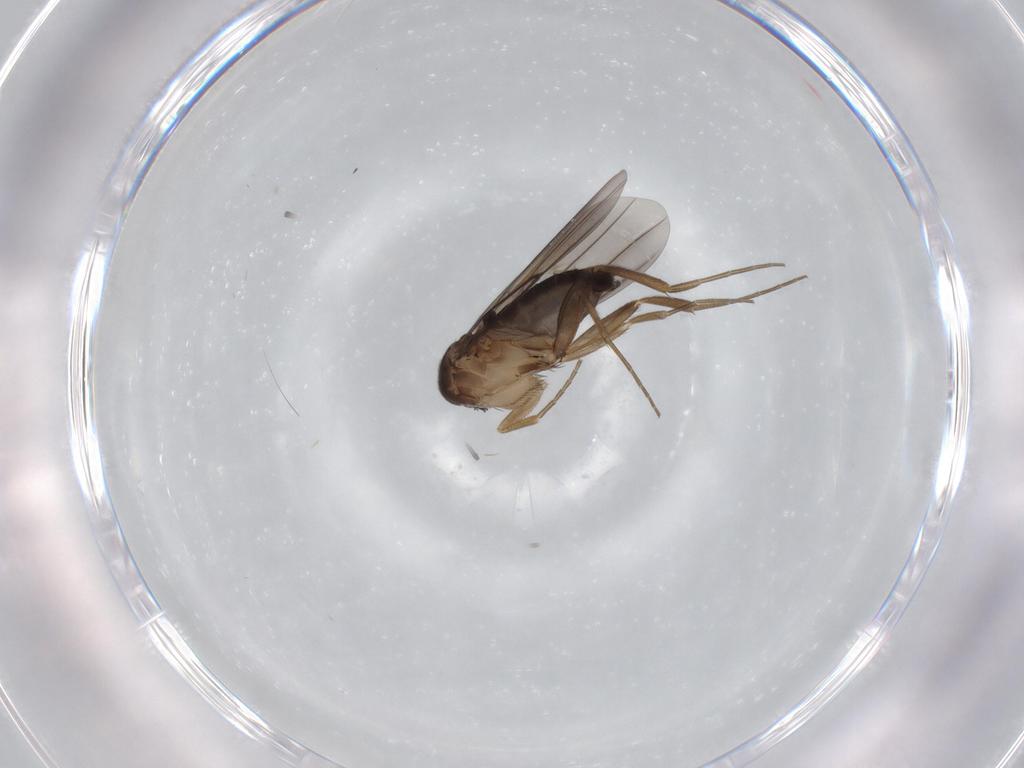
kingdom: Animalia
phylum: Arthropoda
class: Insecta
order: Diptera
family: Phoridae
